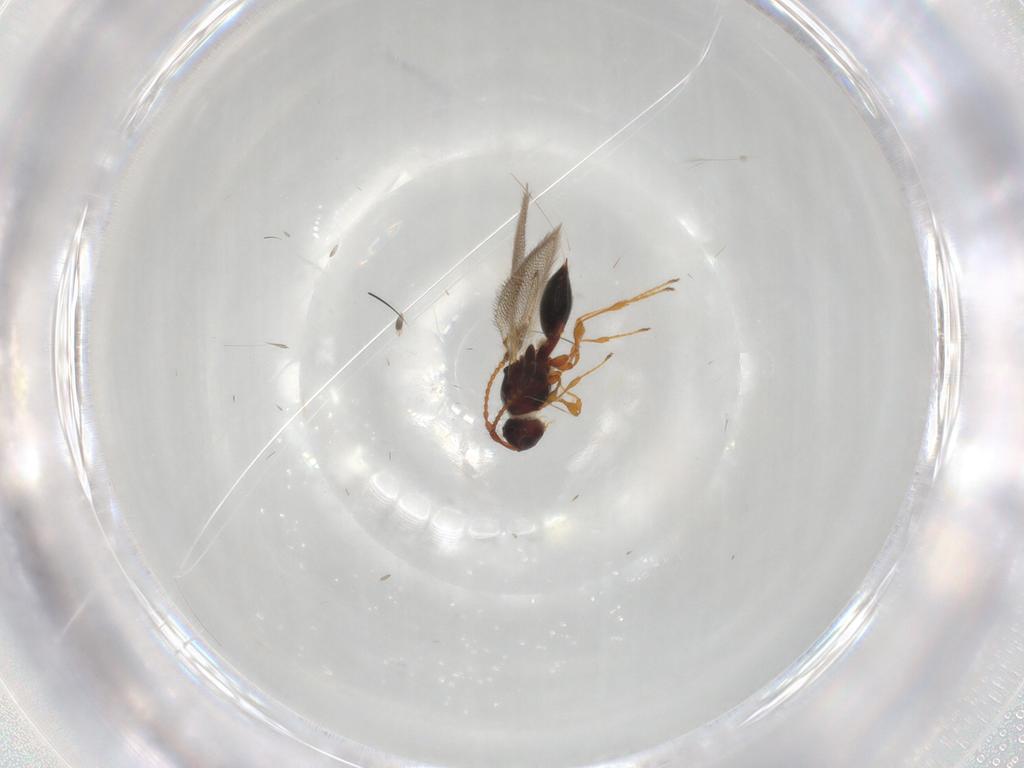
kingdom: Animalia
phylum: Arthropoda
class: Insecta
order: Hymenoptera
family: Diapriidae
